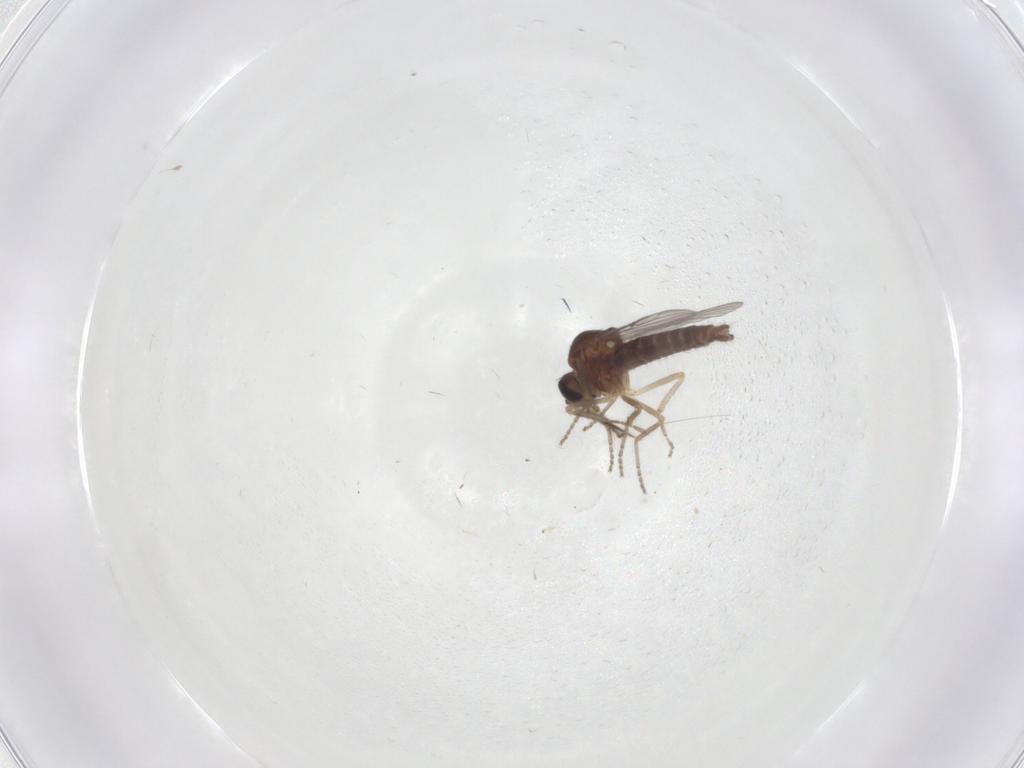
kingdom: Animalia
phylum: Arthropoda
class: Insecta
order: Diptera
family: Ceratopogonidae
